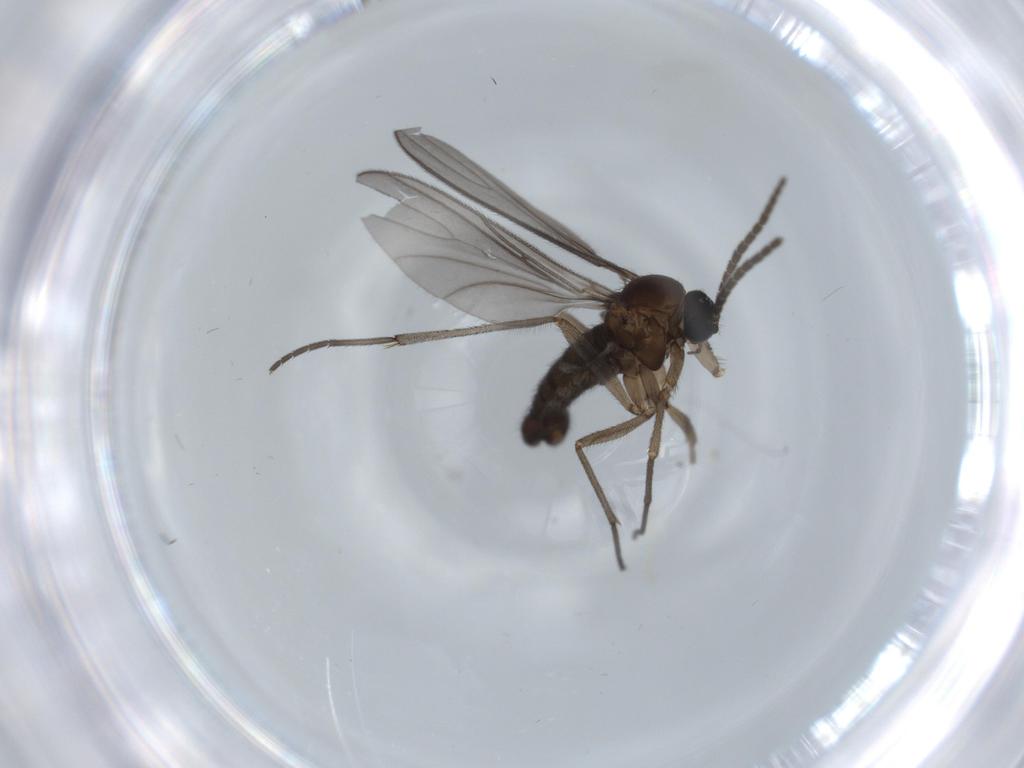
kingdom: Animalia
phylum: Arthropoda
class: Insecta
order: Diptera
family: Sciaridae
